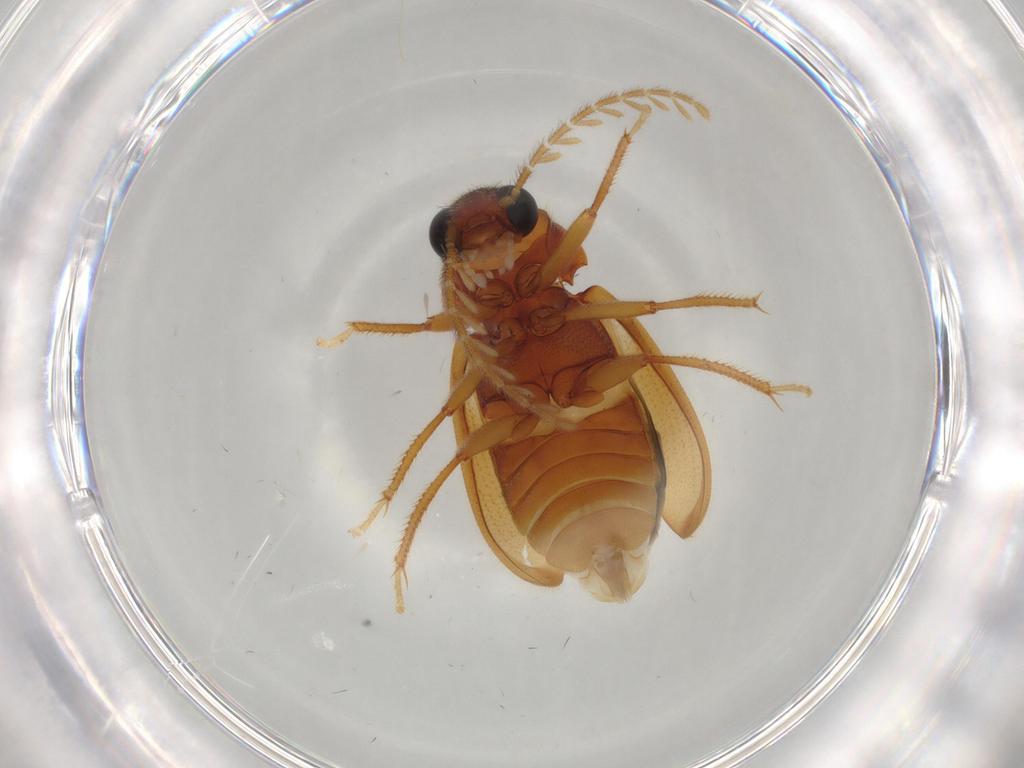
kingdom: Animalia
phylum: Arthropoda
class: Insecta
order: Coleoptera
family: Ptilodactylidae
